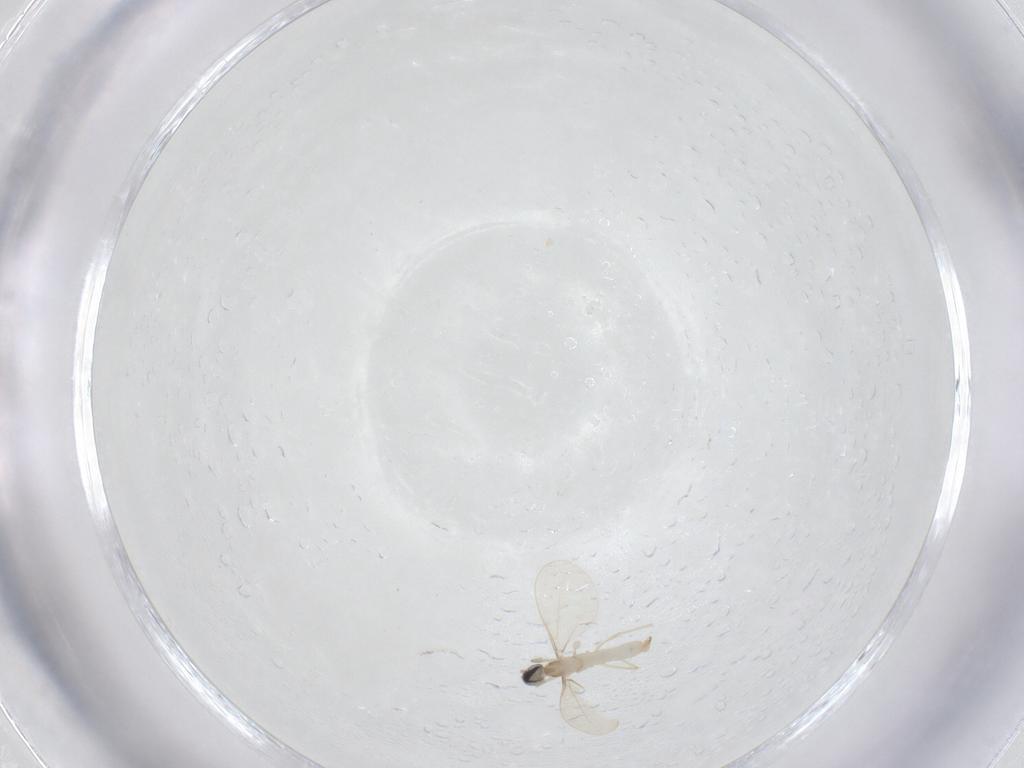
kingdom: Animalia
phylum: Arthropoda
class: Insecta
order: Diptera
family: Cecidomyiidae
